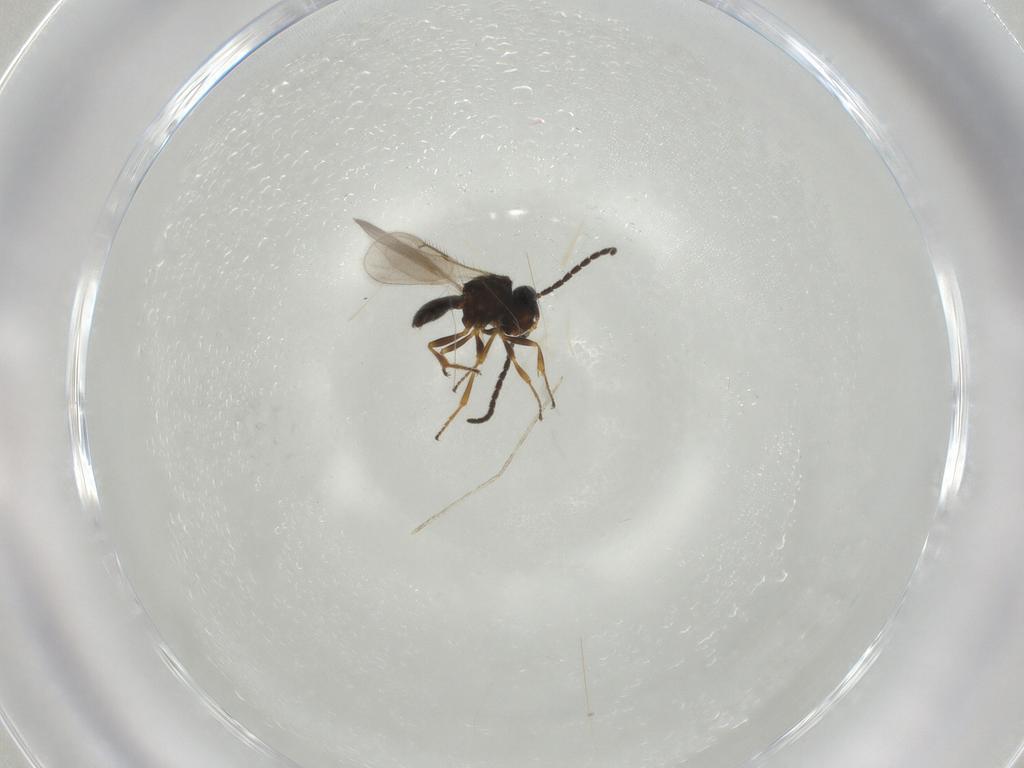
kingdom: Animalia
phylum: Arthropoda
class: Insecta
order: Hymenoptera
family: Scelionidae
